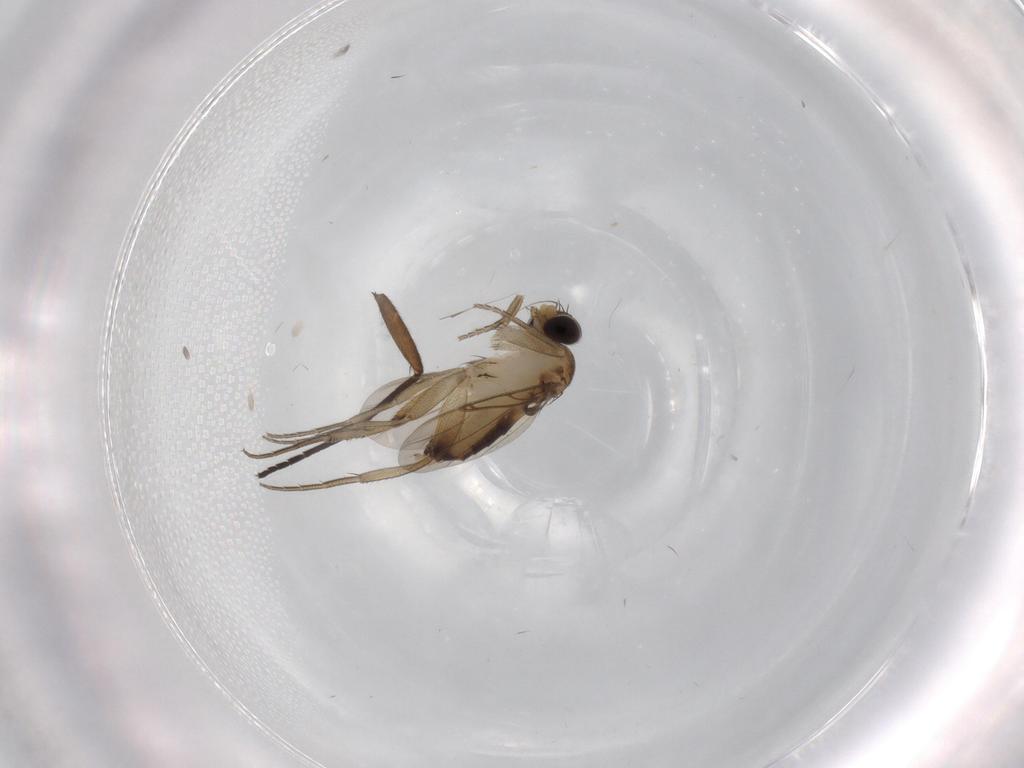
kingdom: Animalia
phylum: Arthropoda
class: Insecta
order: Diptera
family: Phoridae
